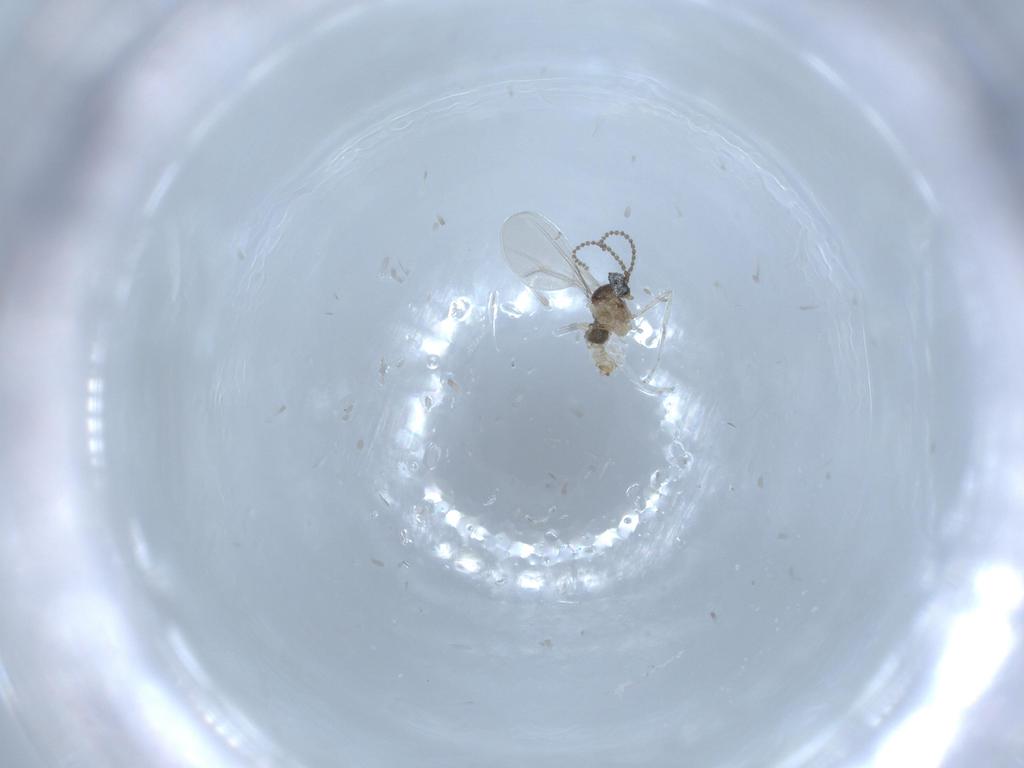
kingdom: Animalia
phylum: Arthropoda
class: Insecta
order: Diptera
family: Cecidomyiidae
